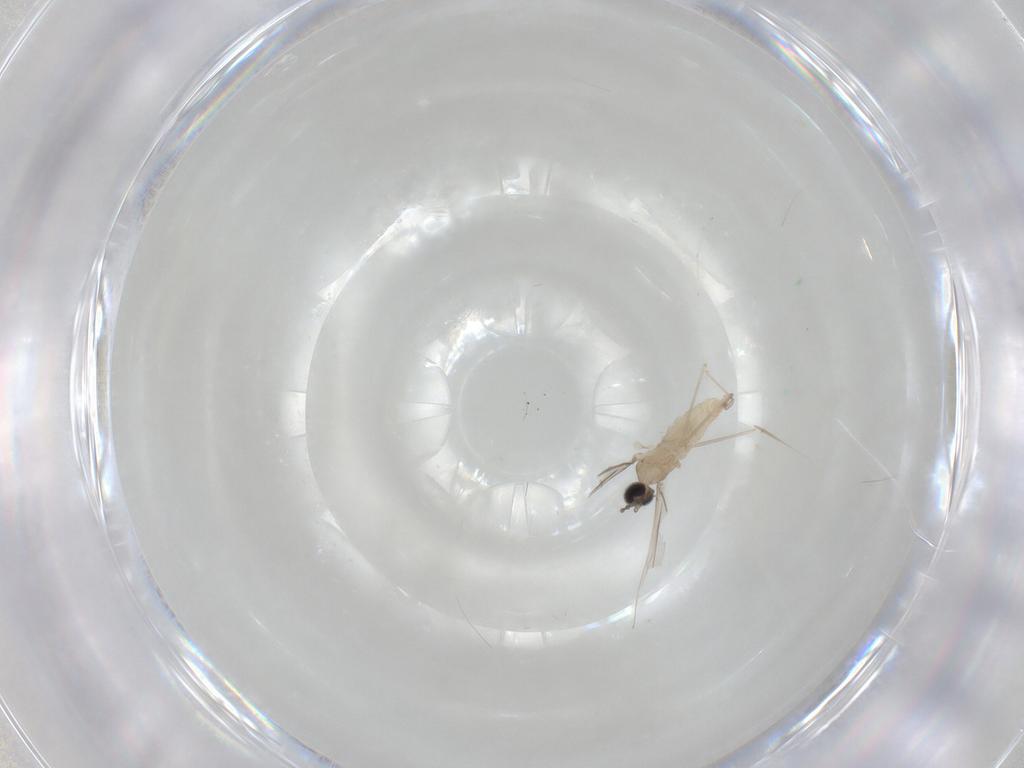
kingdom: Animalia
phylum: Arthropoda
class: Insecta
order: Diptera
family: Cecidomyiidae
